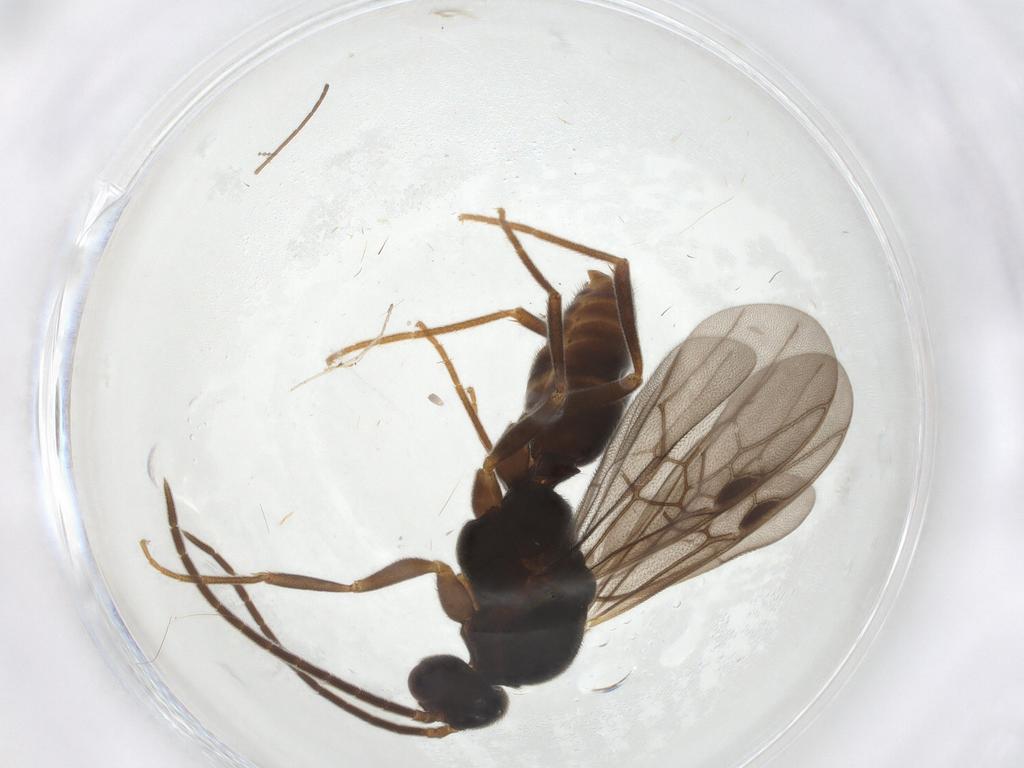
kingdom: Animalia
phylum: Arthropoda
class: Insecta
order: Hymenoptera
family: Formicidae
